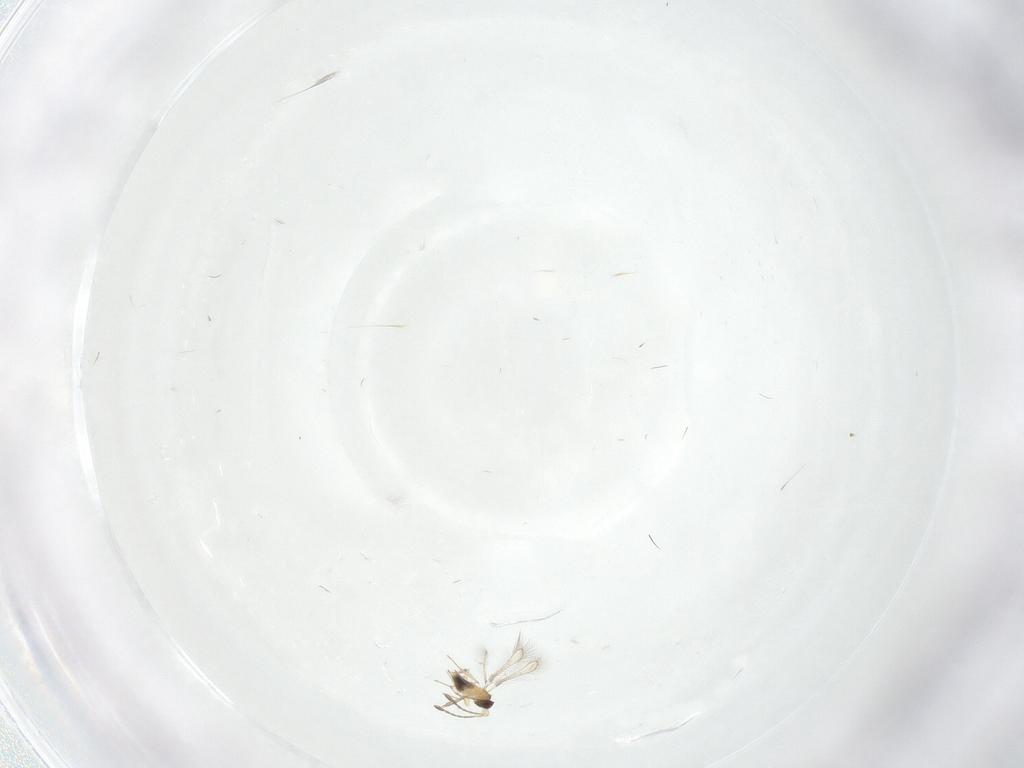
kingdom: Animalia
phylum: Arthropoda
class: Insecta
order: Hymenoptera
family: Mymaridae
